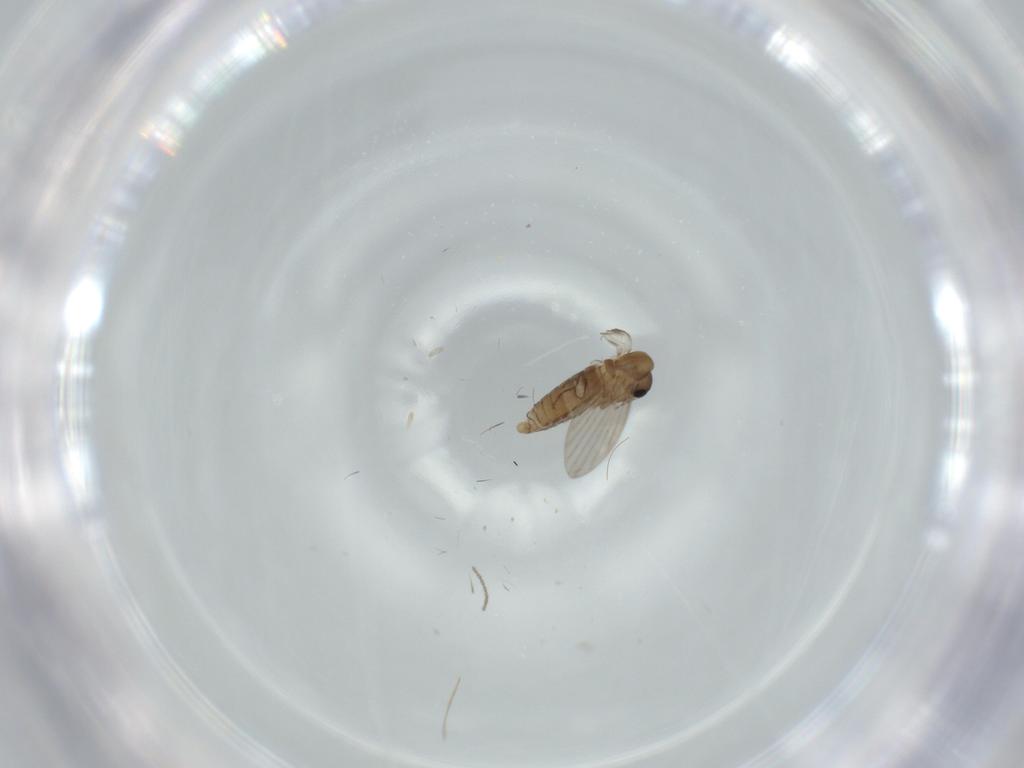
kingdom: Animalia
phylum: Arthropoda
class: Insecta
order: Diptera
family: Cecidomyiidae
